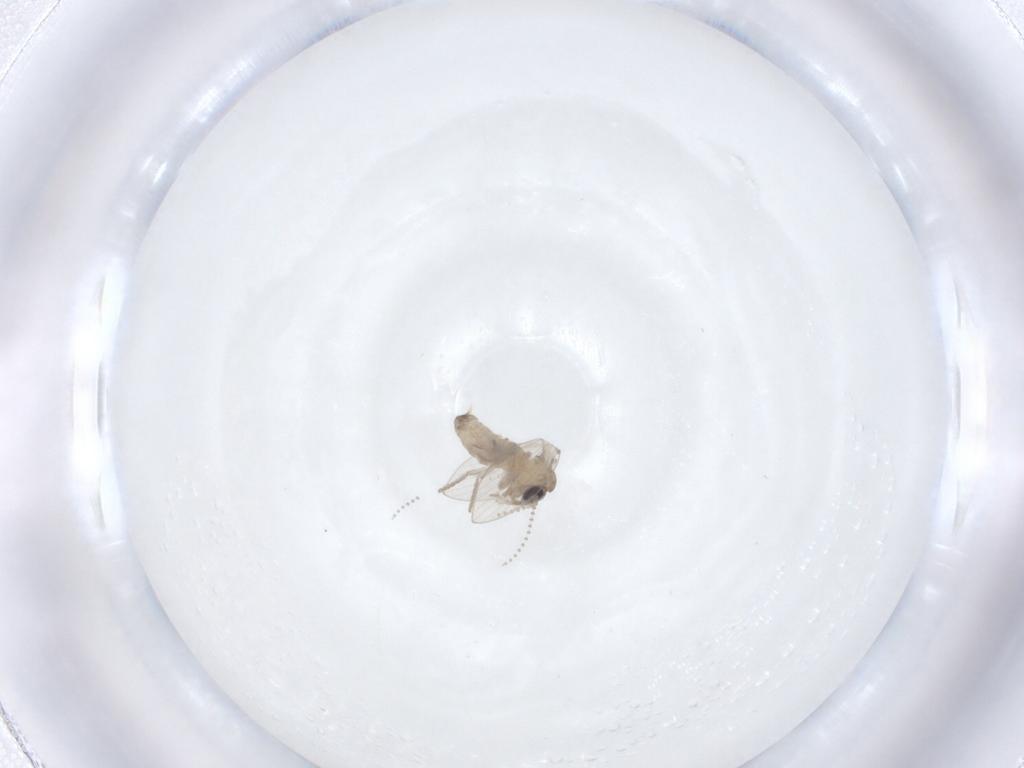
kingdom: Animalia
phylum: Arthropoda
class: Insecta
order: Diptera
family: Psychodidae
